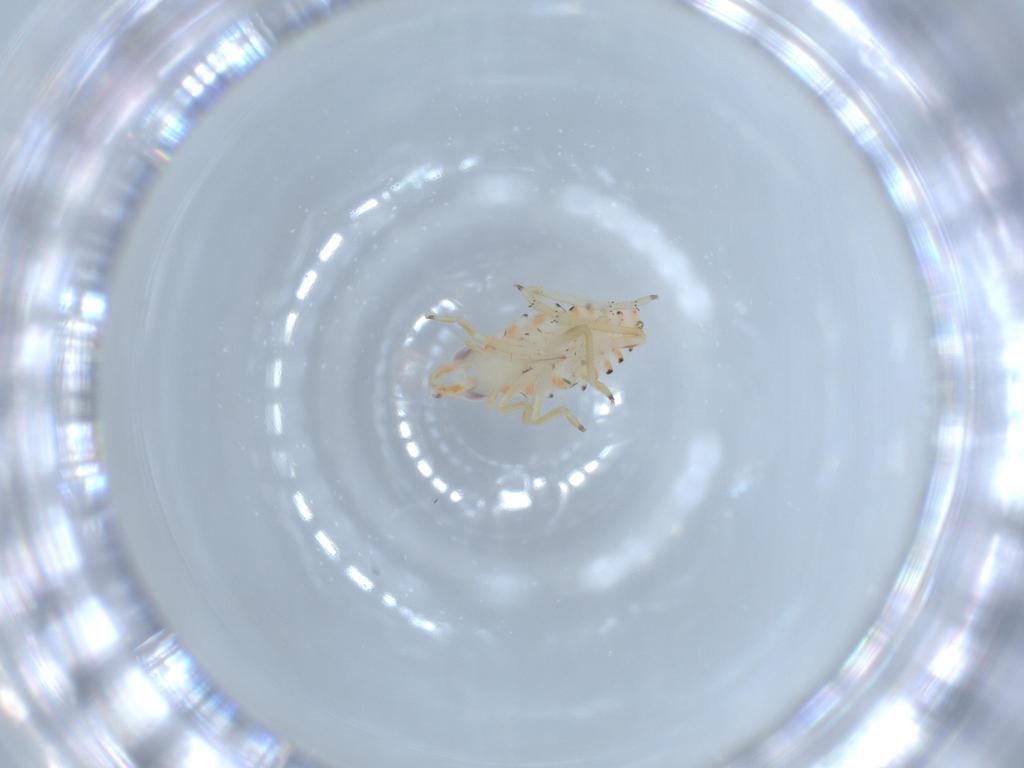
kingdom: Animalia
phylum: Arthropoda
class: Insecta
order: Hemiptera
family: Tropiduchidae
